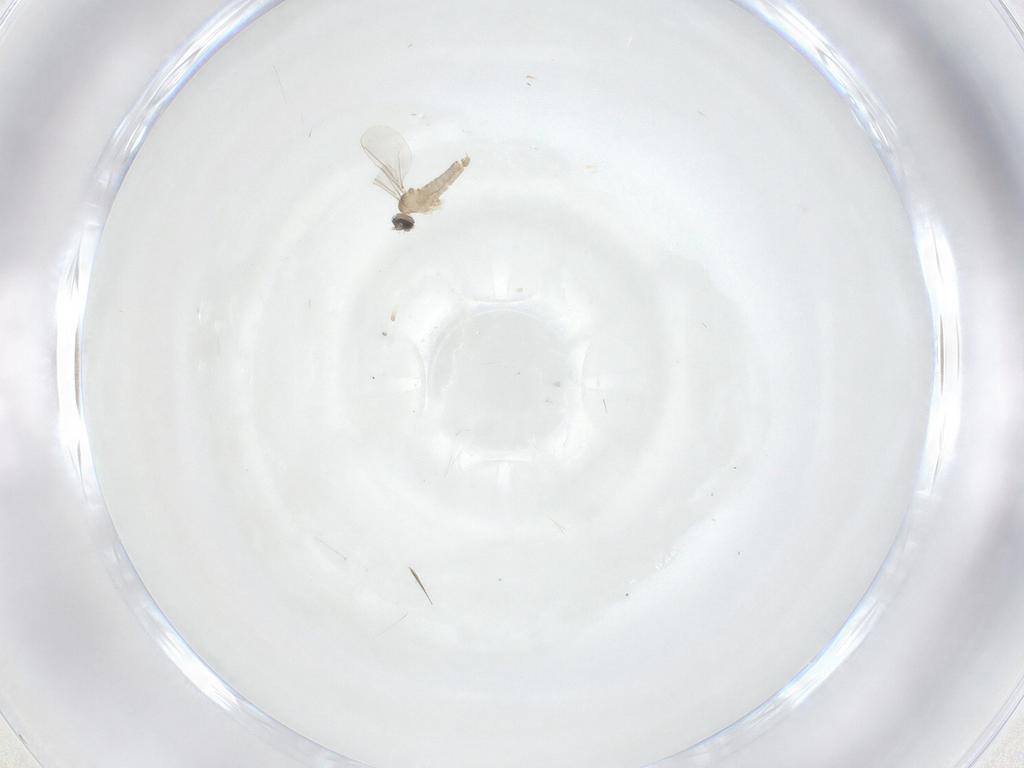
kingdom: Animalia
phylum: Arthropoda
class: Insecta
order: Diptera
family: Cecidomyiidae
